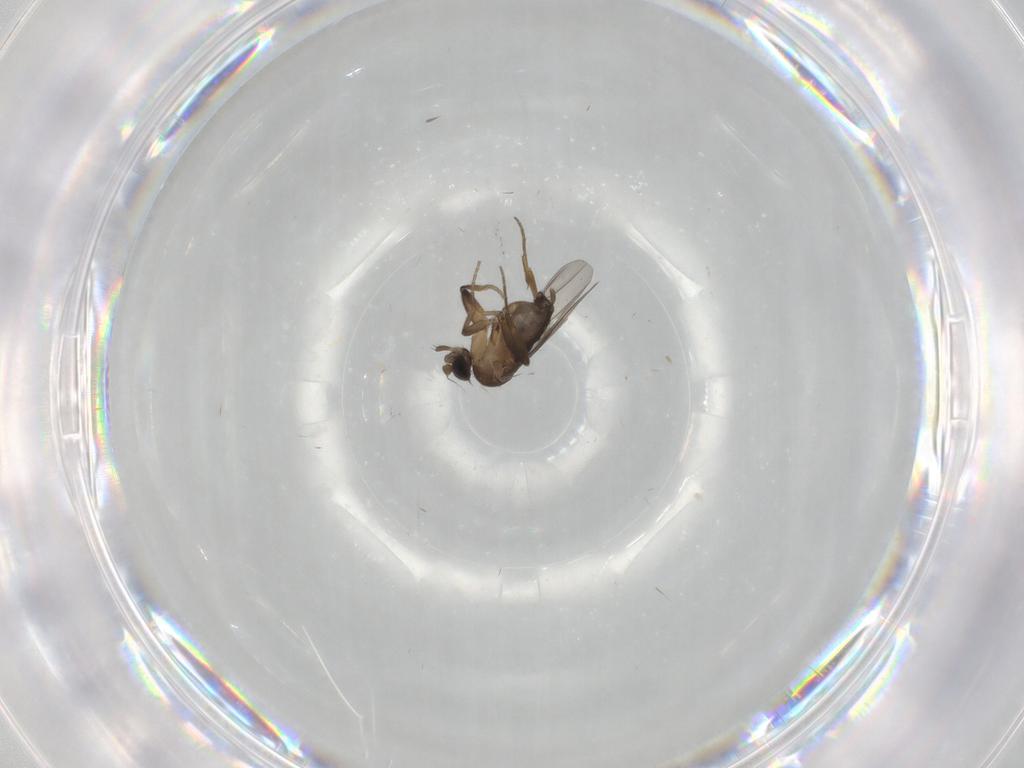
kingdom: Animalia
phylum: Arthropoda
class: Insecta
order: Diptera
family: Phoridae
